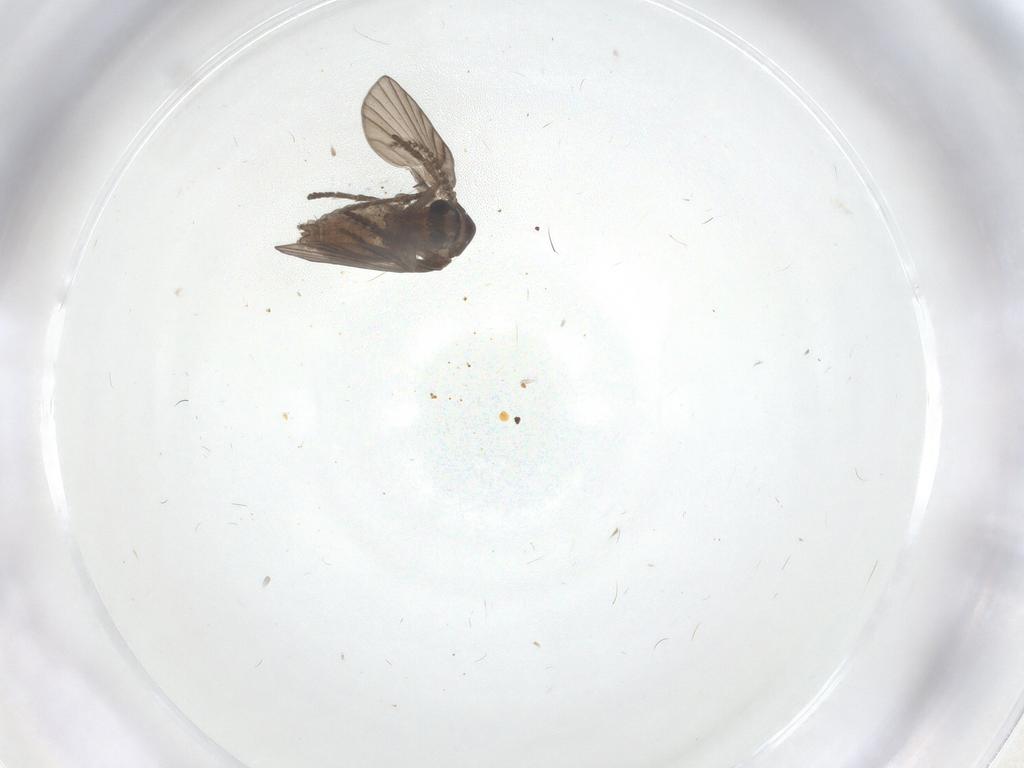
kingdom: Animalia
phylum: Arthropoda
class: Insecta
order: Diptera
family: Psychodidae
